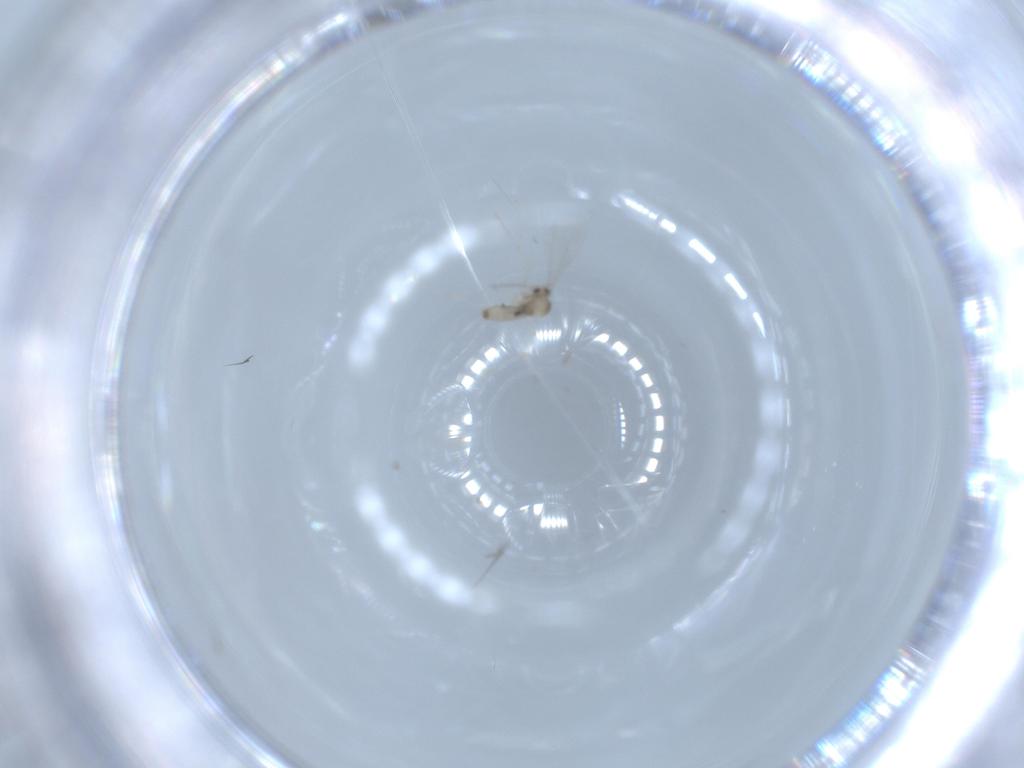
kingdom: Animalia
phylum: Arthropoda
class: Insecta
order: Diptera
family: Cecidomyiidae
